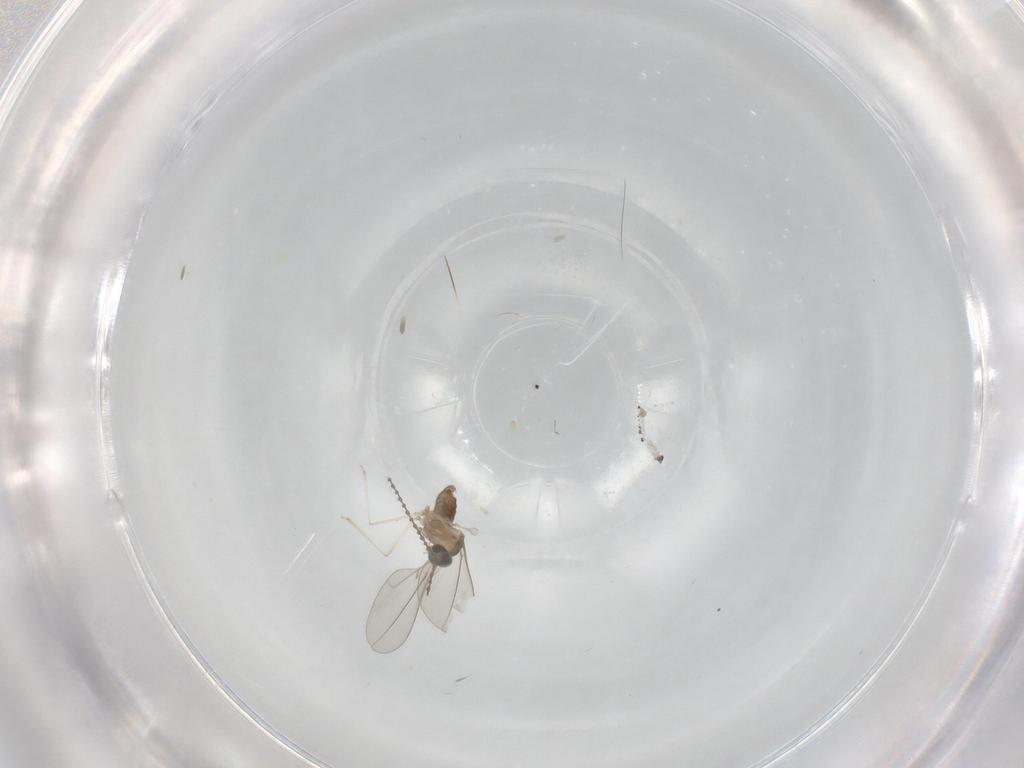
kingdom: Animalia
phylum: Arthropoda
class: Insecta
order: Diptera
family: Cecidomyiidae
